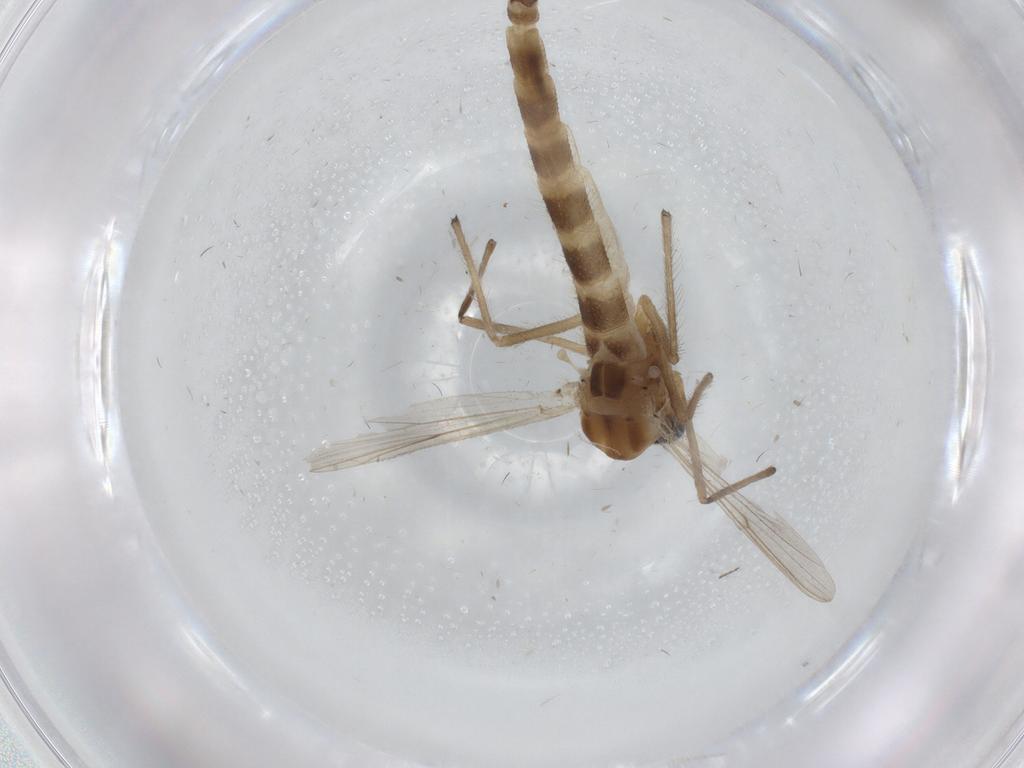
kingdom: Animalia
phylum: Arthropoda
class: Insecta
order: Diptera
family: Chironomidae
